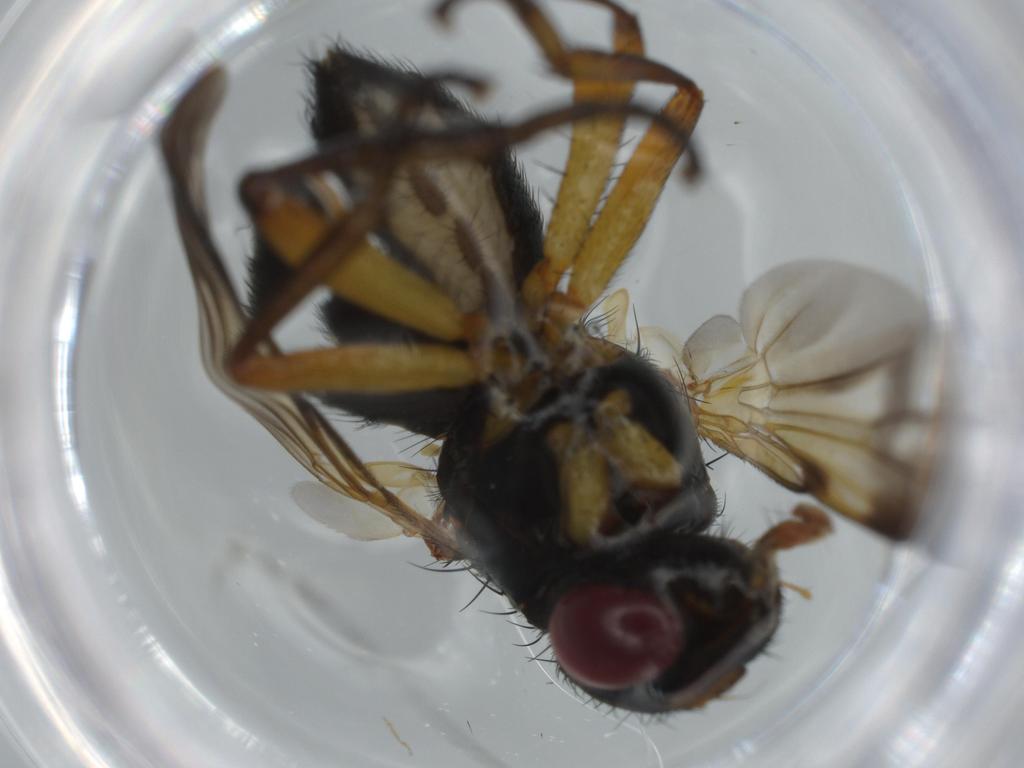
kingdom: Animalia
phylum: Arthropoda
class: Insecta
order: Diptera
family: Calliphoridae
